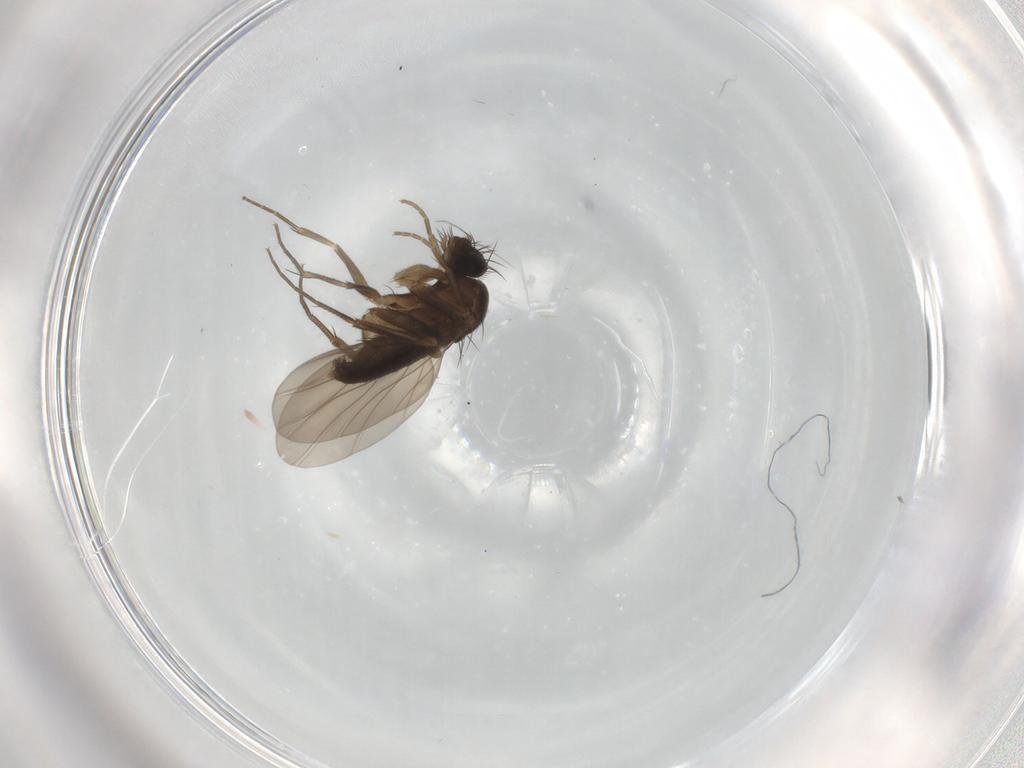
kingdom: Animalia
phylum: Arthropoda
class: Insecta
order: Diptera
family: Phoridae
